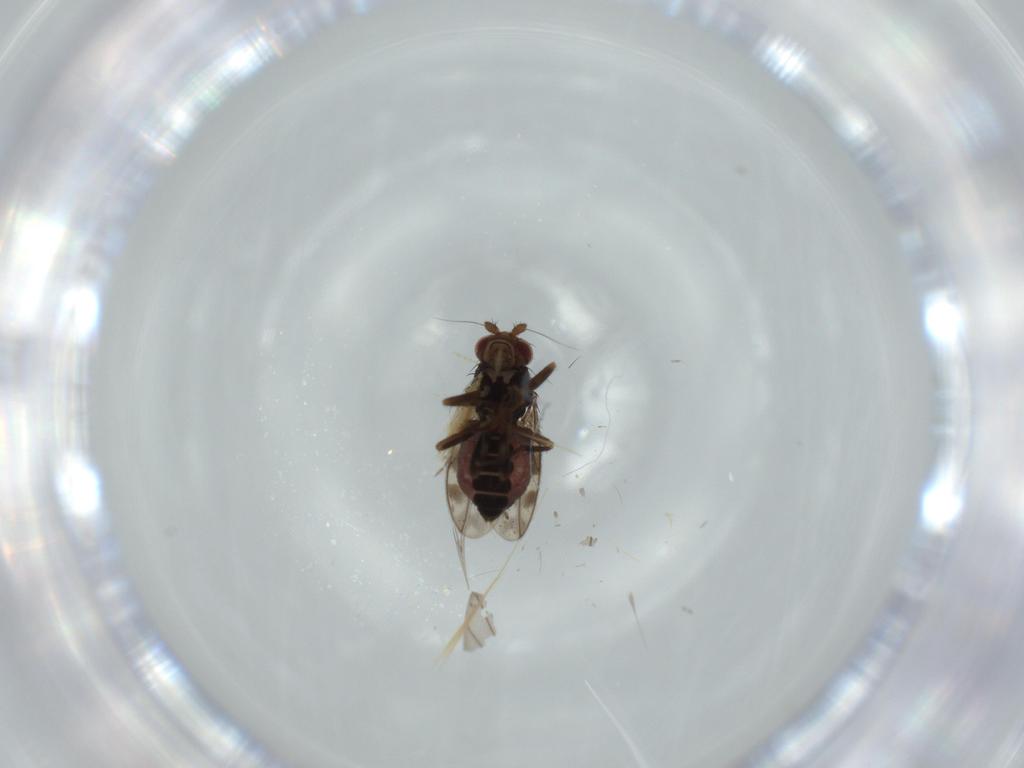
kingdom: Animalia
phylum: Arthropoda
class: Insecta
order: Diptera
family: Sphaeroceridae
